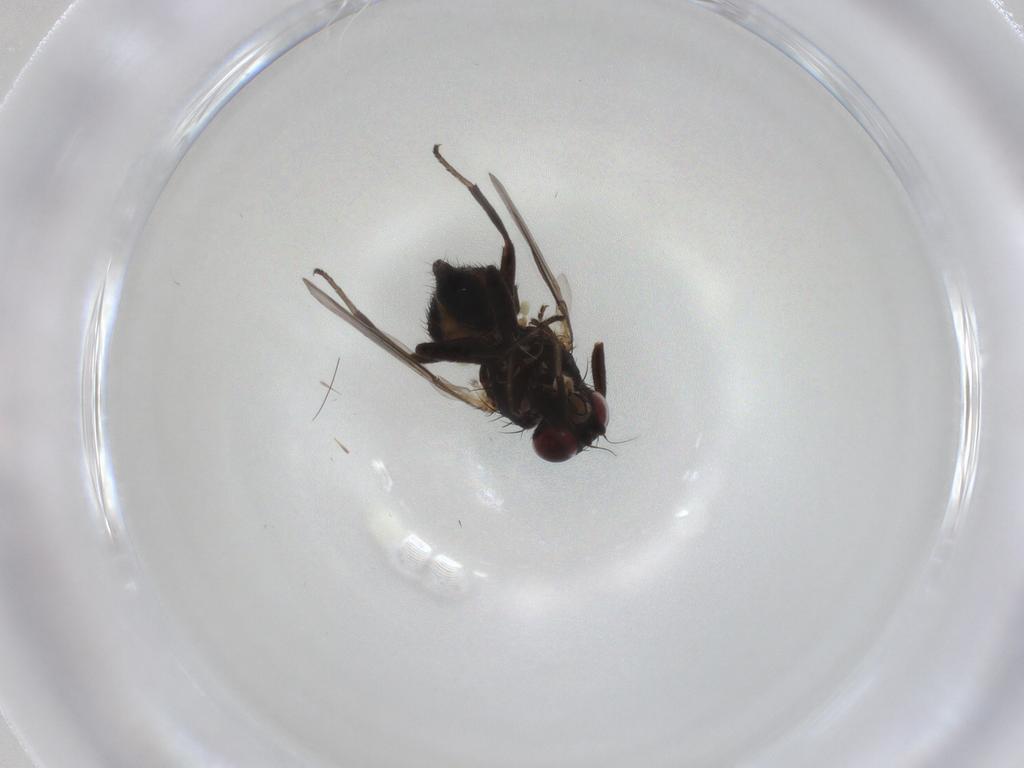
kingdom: Animalia
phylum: Arthropoda
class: Insecta
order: Diptera
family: Agromyzidae
